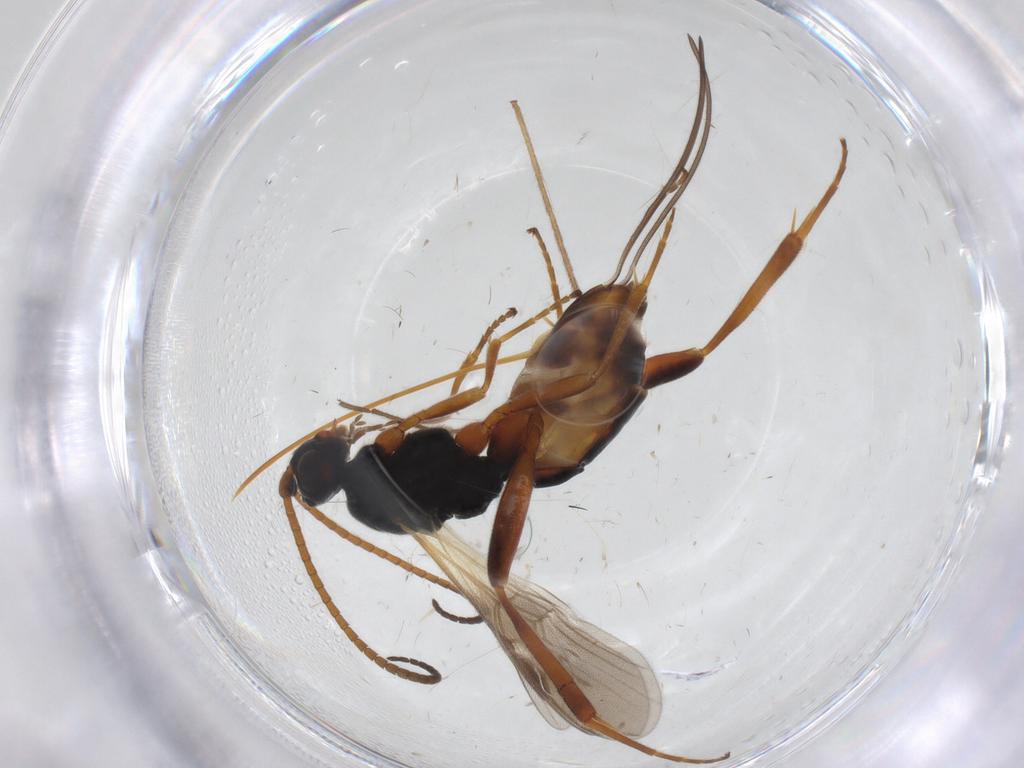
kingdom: Animalia
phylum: Arthropoda
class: Insecta
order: Hymenoptera
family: Braconidae
